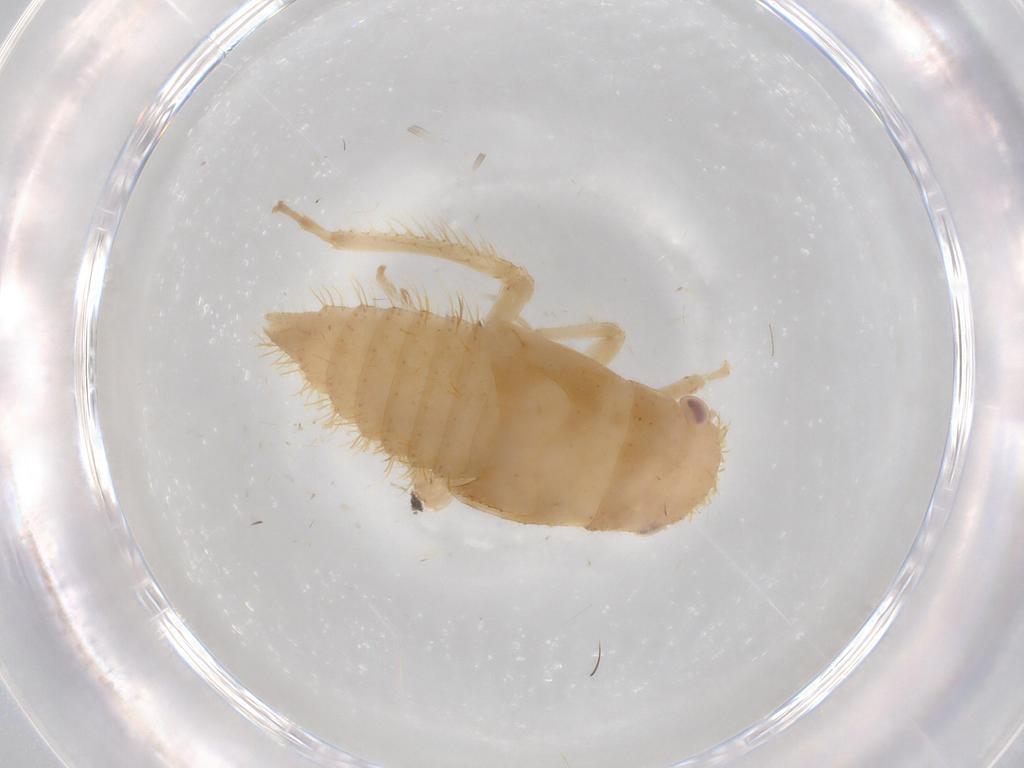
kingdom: Animalia
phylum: Arthropoda
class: Insecta
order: Hemiptera
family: Cicadellidae
